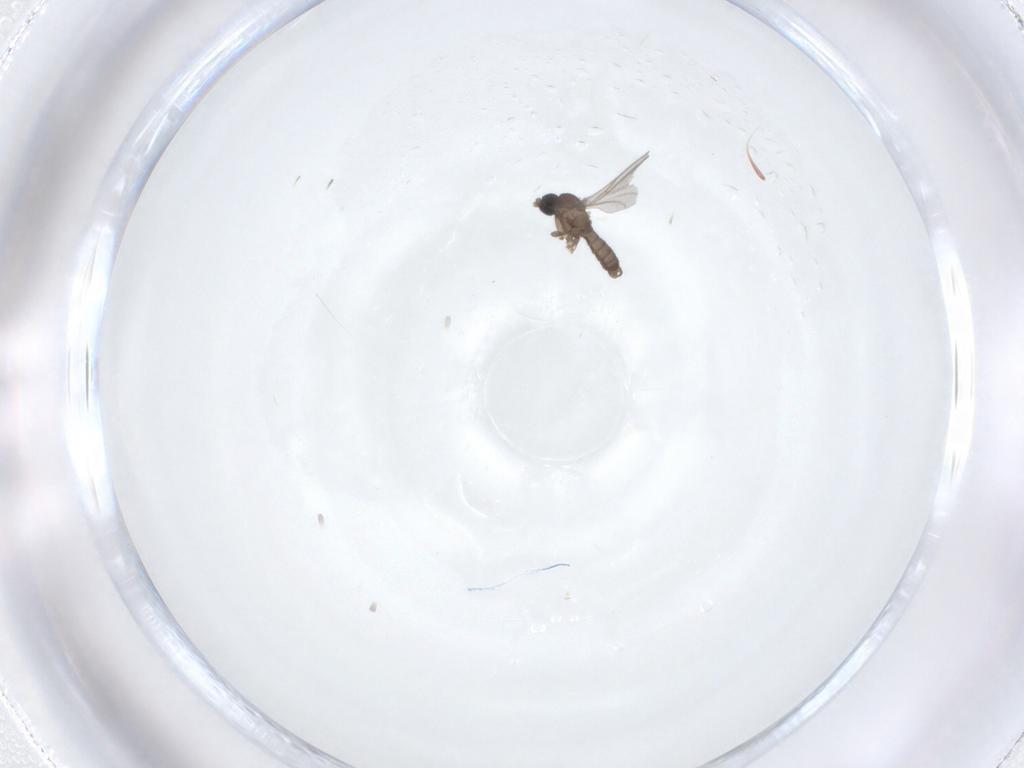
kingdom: Animalia
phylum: Arthropoda
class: Insecta
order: Diptera
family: Sciaridae
